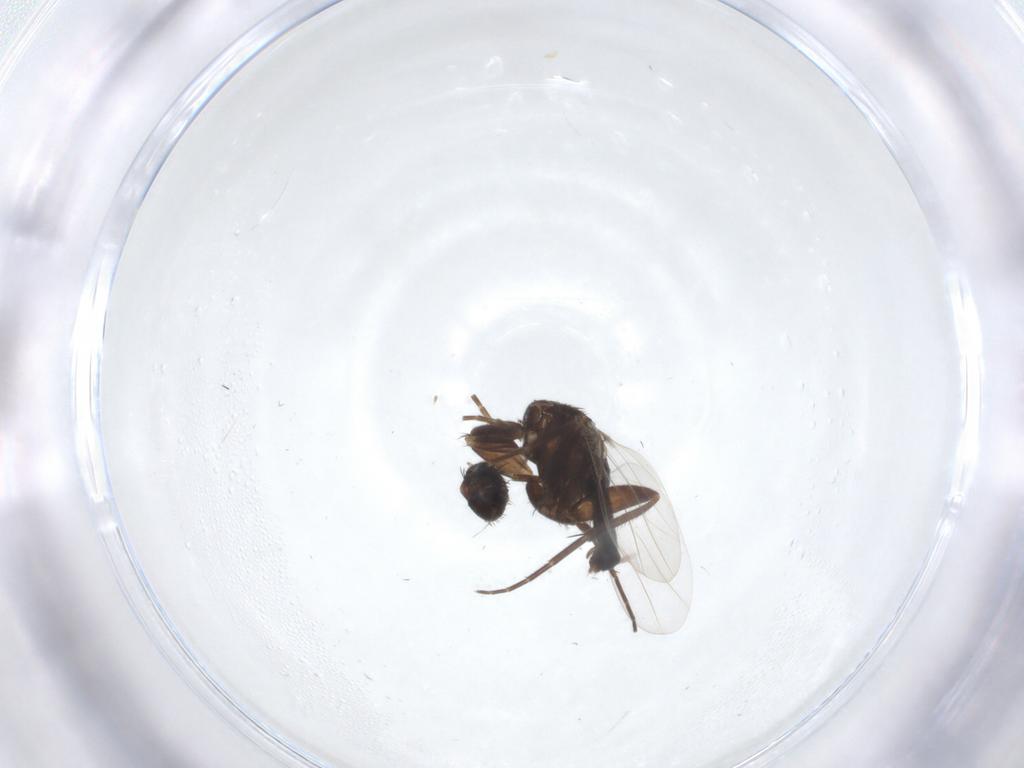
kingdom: Animalia
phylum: Arthropoda
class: Insecta
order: Diptera
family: Phoridae
